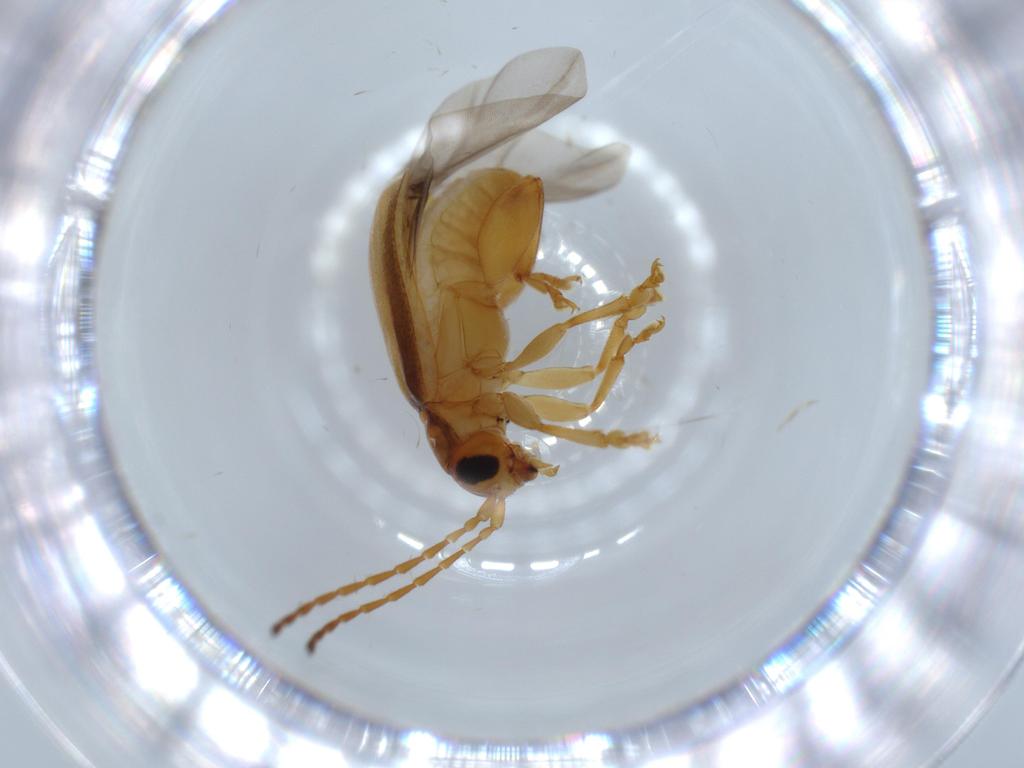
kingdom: Animalia
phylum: Arthropoda
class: Insecta
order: Coleoptera
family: Chrysomelidae
